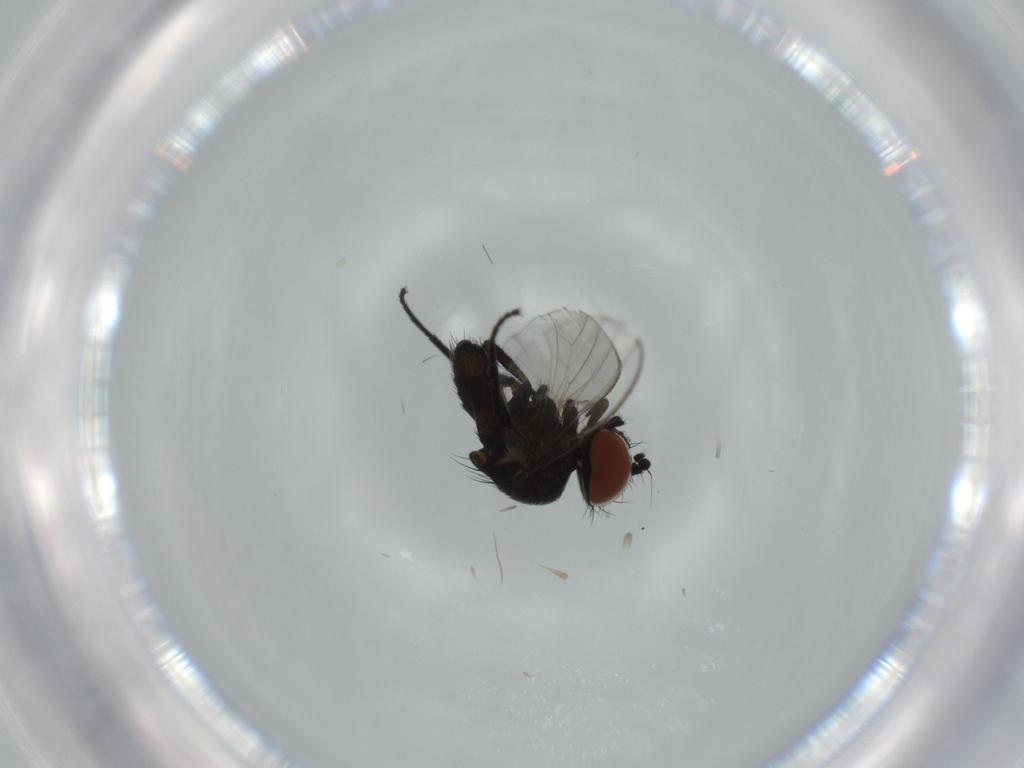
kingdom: Animalia
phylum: Arthropoda
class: Insecta
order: Diptera
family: Milichiidae
